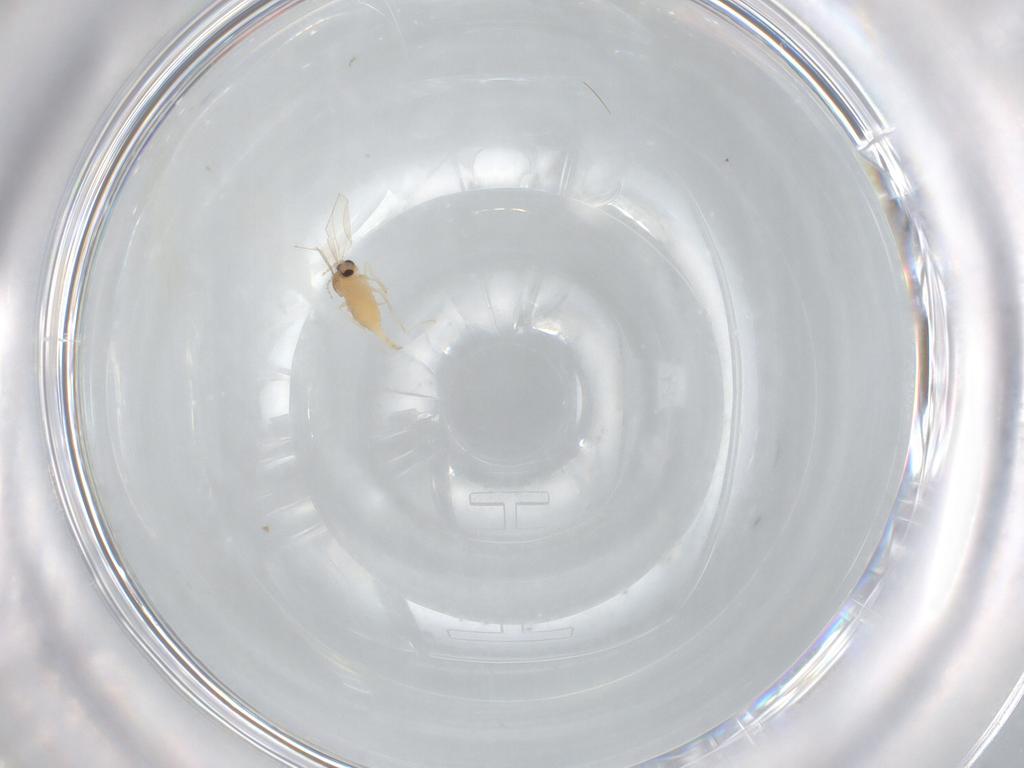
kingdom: Animalia
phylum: Arthropoda
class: Insecta
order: Diptera
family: Cecidomyiidae
